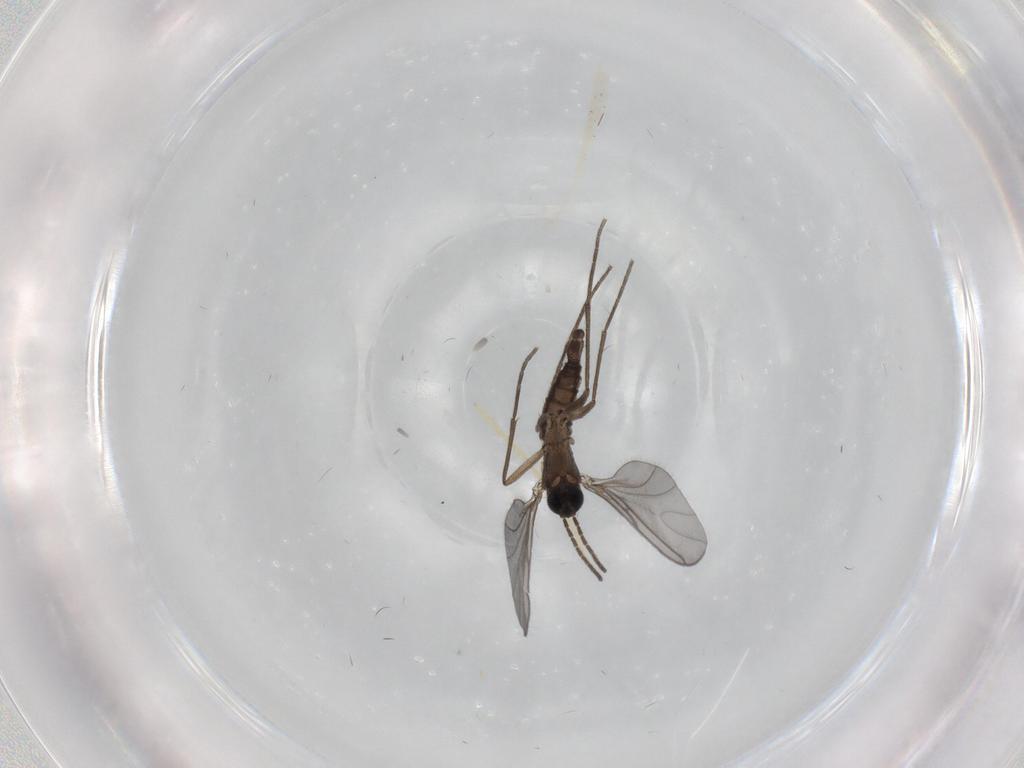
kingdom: Animalia
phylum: Arthropoda
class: Insecta
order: Diptera
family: Chironomidae
